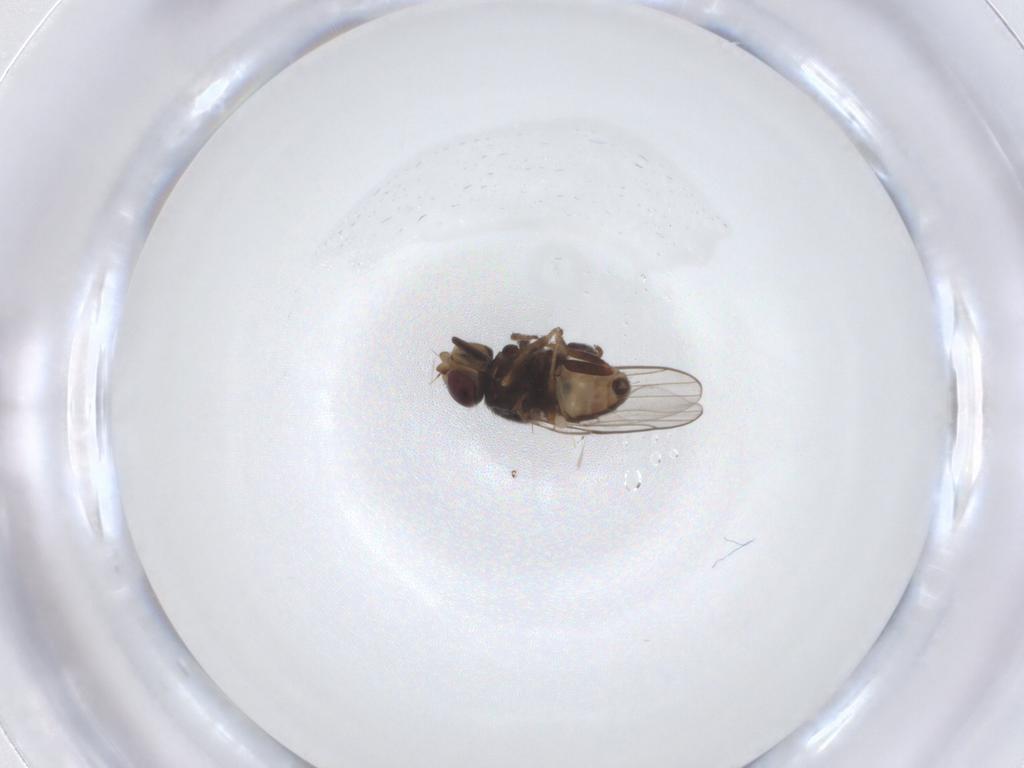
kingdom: Animalia
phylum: Arthropoda
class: Insecta
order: Diptera
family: Chloropidae
